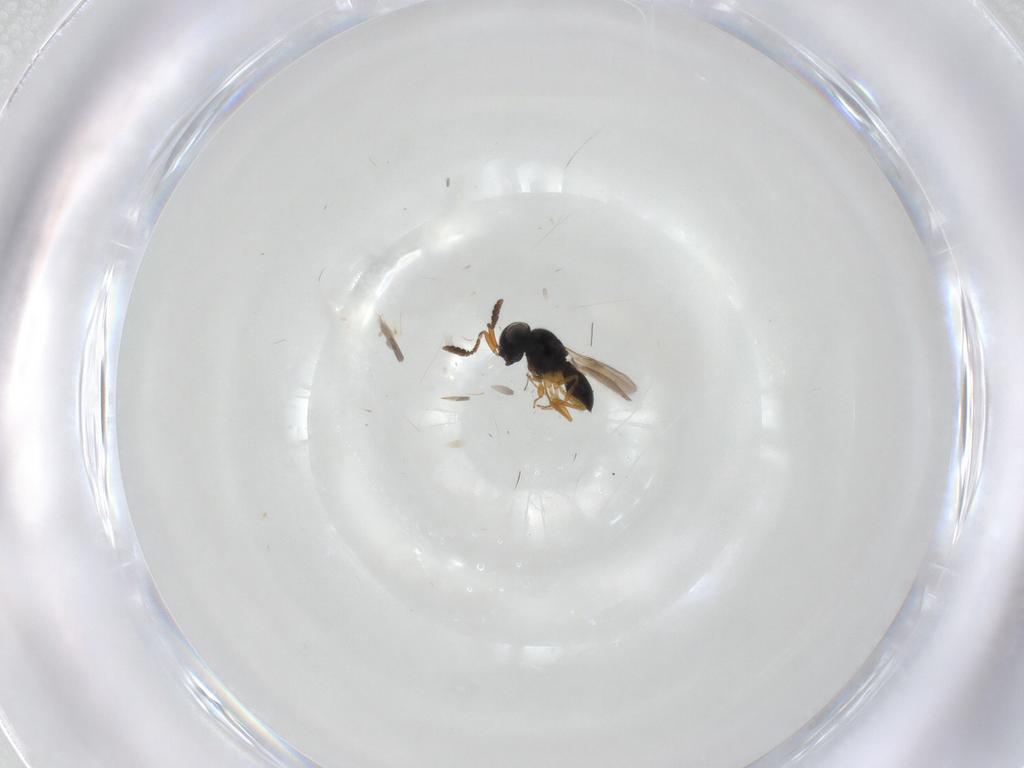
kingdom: Animalia
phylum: Arthropoda
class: Insecta
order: Hymenoptera
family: Scelionidae
